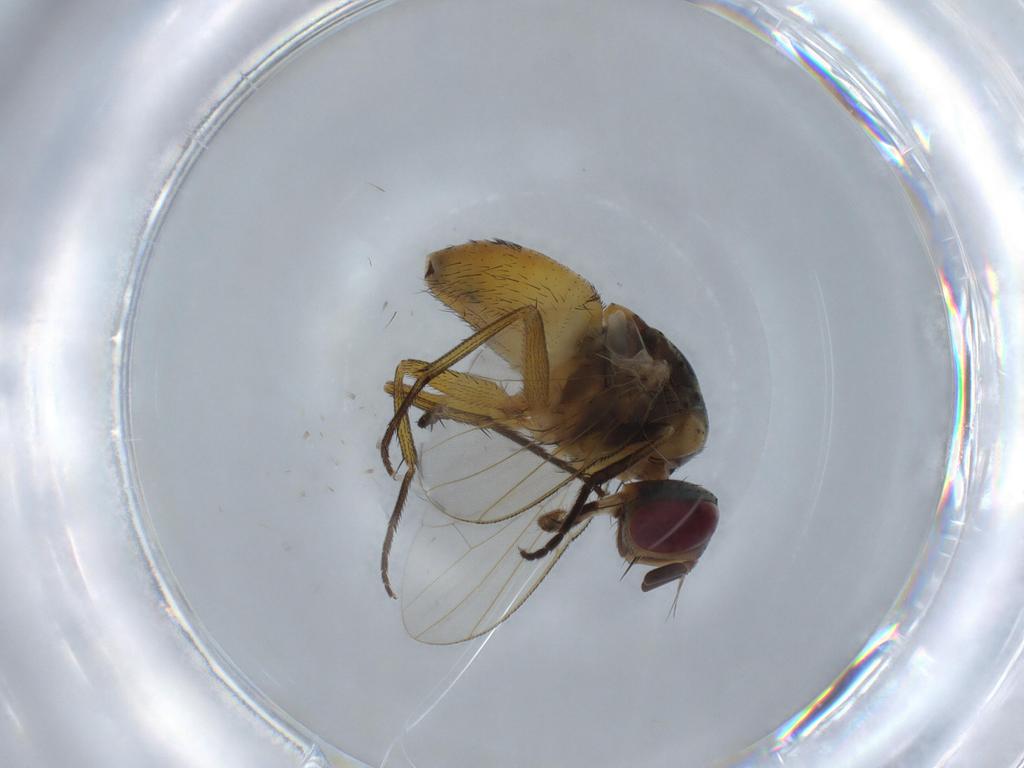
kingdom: Animalia
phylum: Arthropoda
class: Insecta
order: Diptera
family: Muscidae
